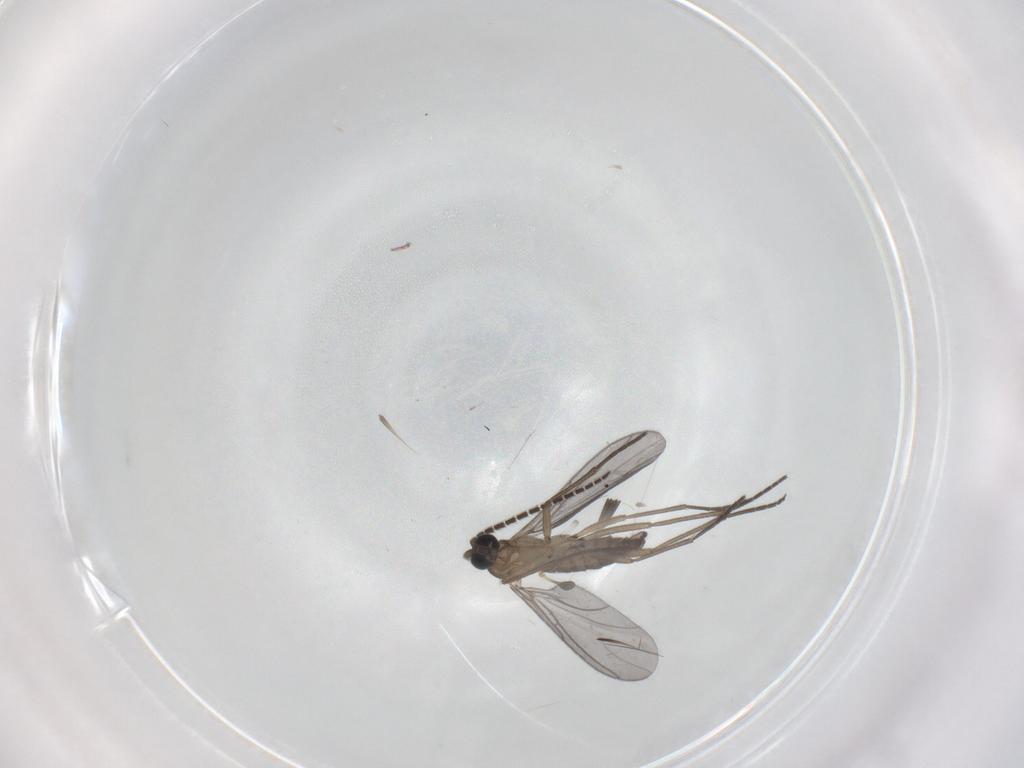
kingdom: Animalia
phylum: Arthropoda
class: Insecta
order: Diptera
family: Sciaridae
